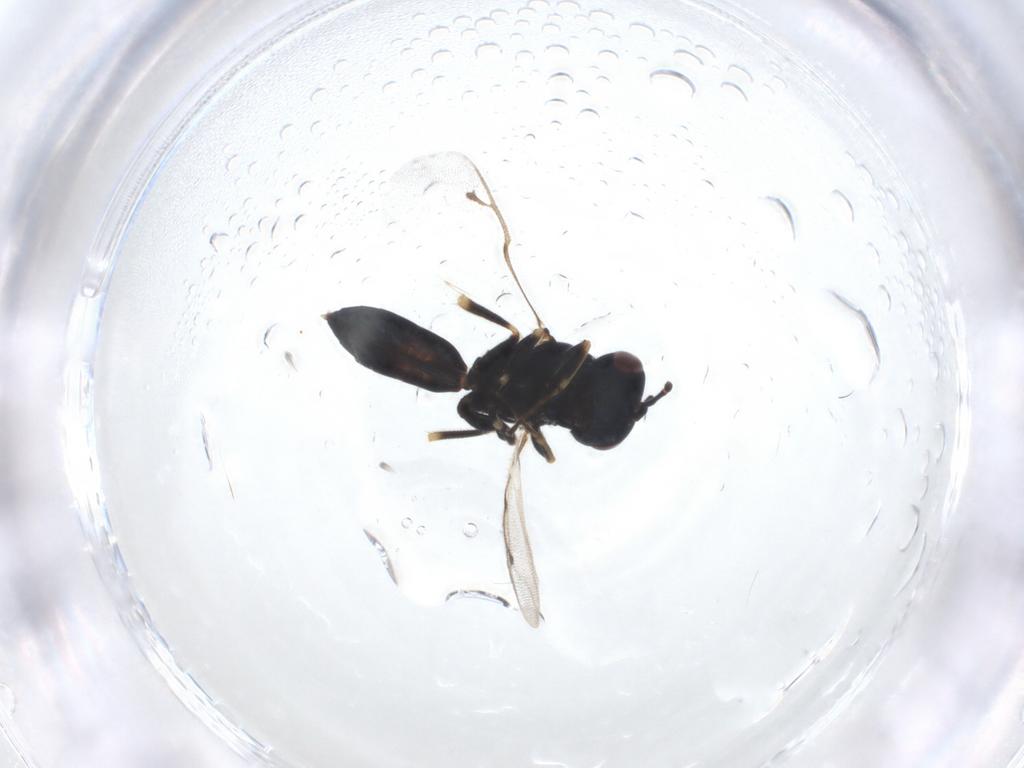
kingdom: Animalia
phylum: Arthropoda
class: Insecta
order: Hymenoptera
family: Pteromalidae
